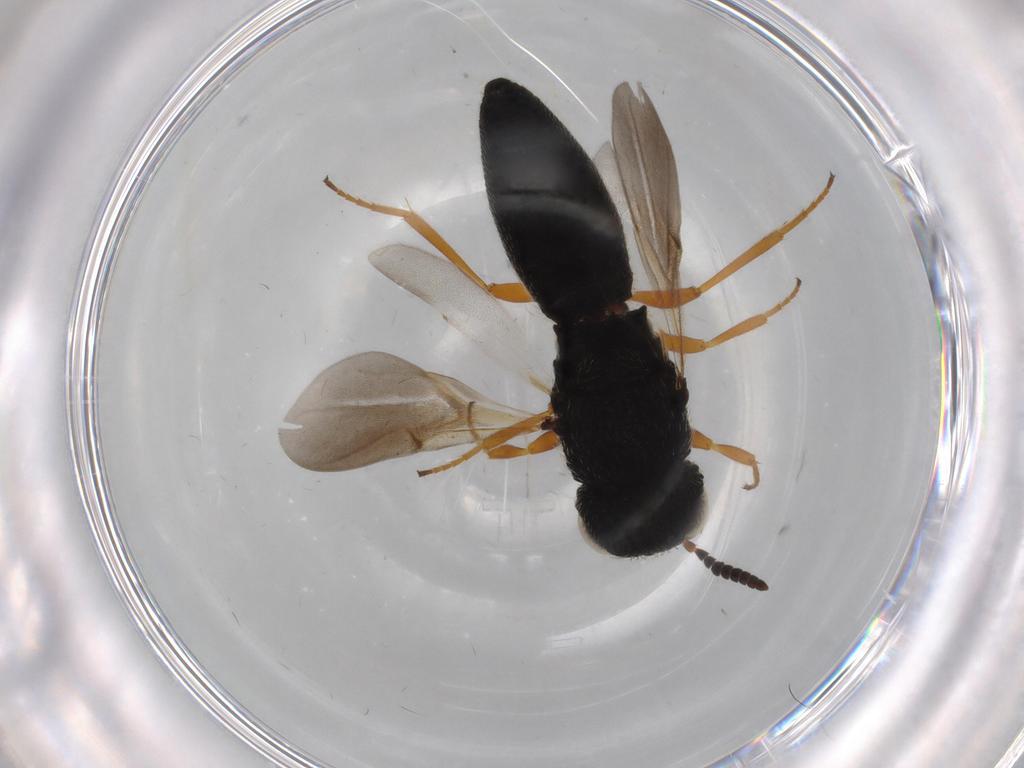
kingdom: Animalia
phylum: Arthropoda
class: Insecta
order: Hymenoptera
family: Scelionidae
